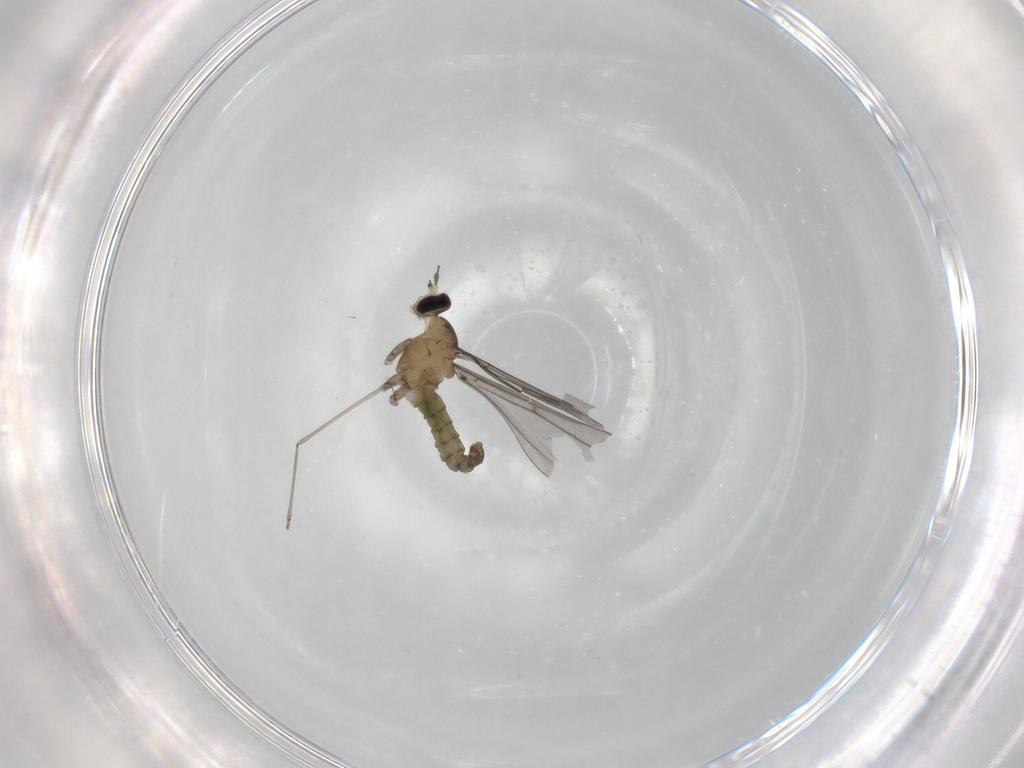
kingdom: Animalia
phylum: Arthropoda
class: Insecta
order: Diptera
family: Cecidomyiidae
